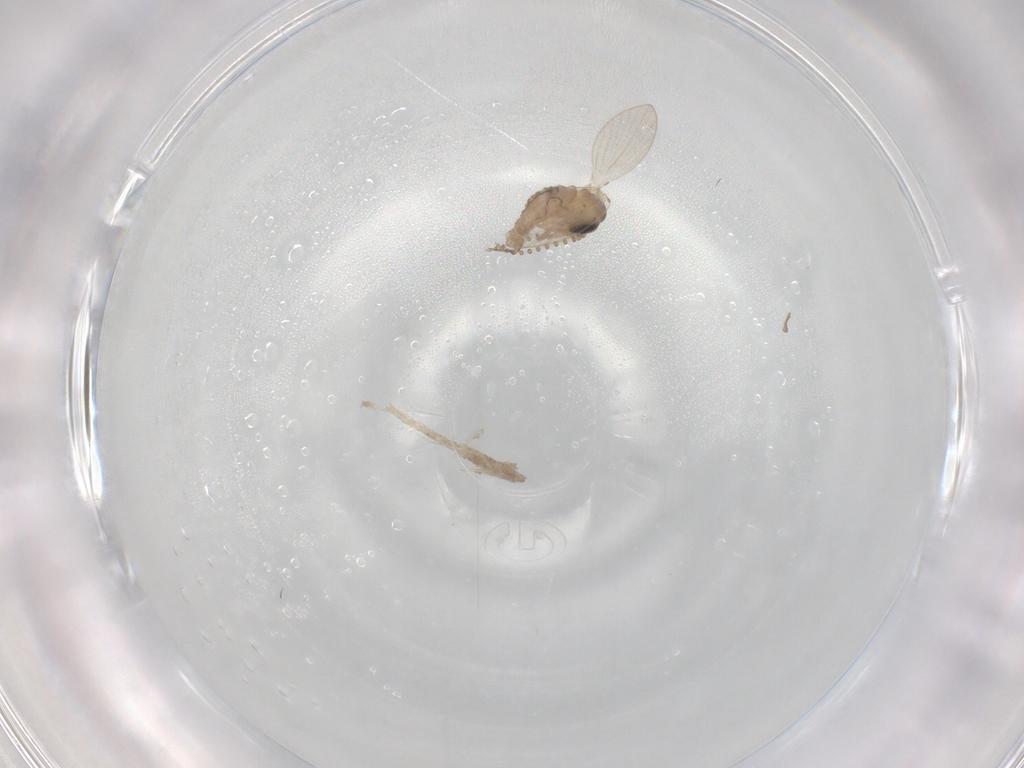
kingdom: Animalia
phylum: Arthropoda
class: Insecta
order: Diptera
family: Psychodidae
